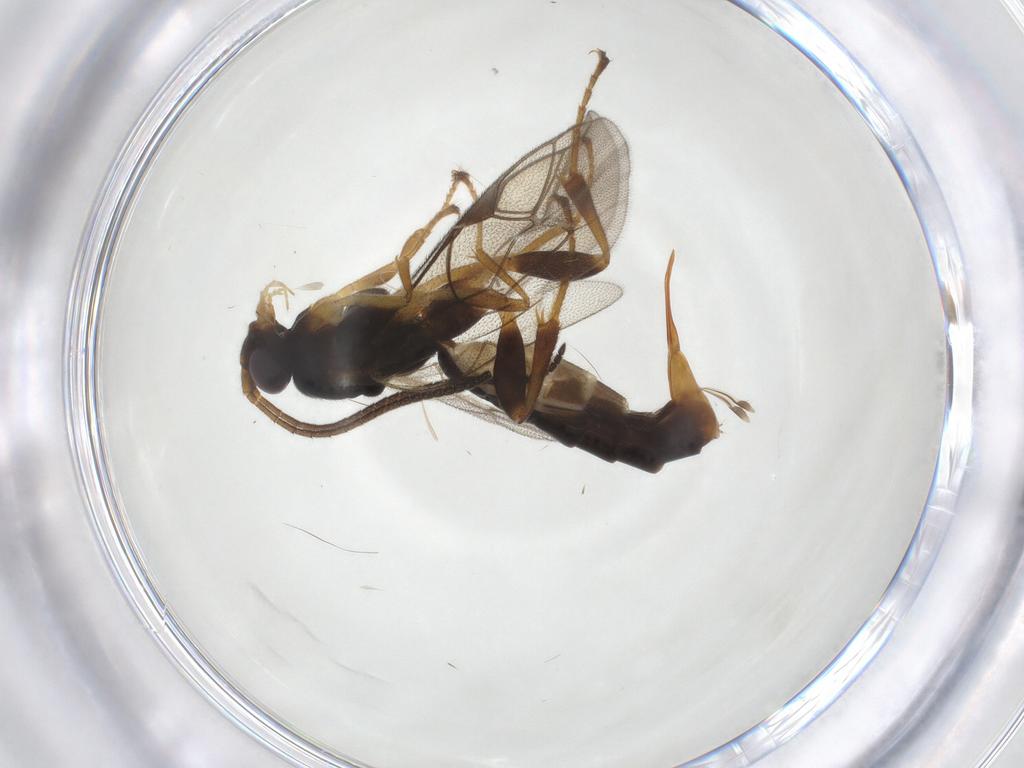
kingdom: Animalia
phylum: Arthropoda
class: Insecta
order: Hymenoptera
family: Ichneumonidae
